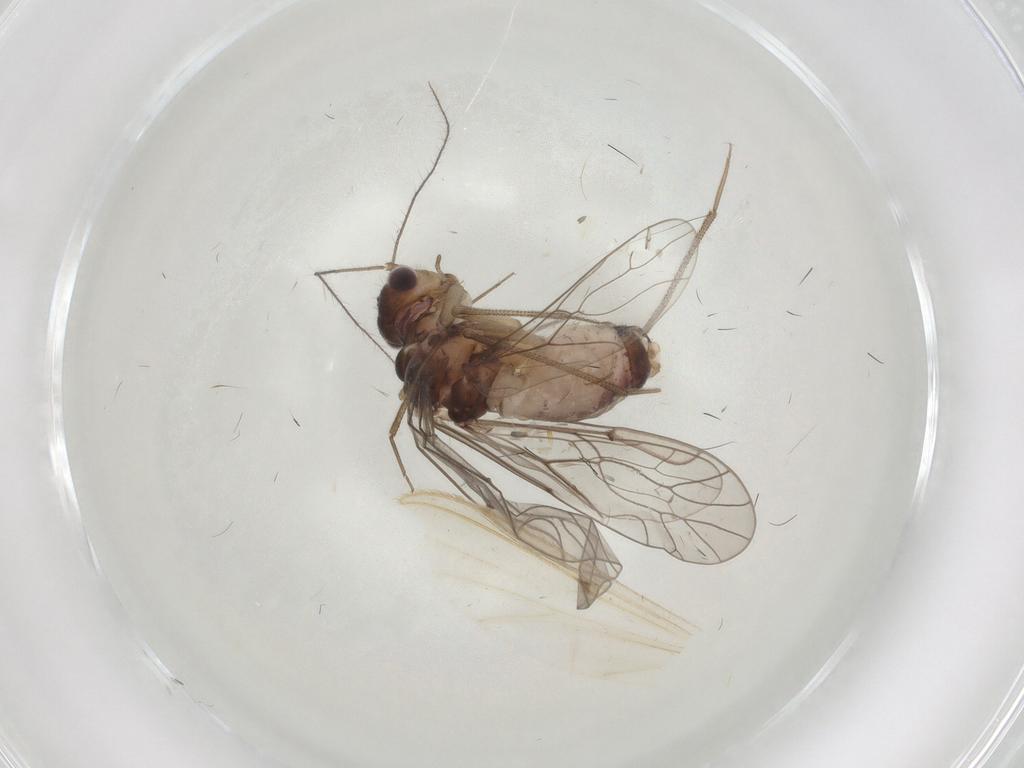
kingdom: Animalia
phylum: Arthropoda
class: Insecta
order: Psocodea
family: Lachesillidae
